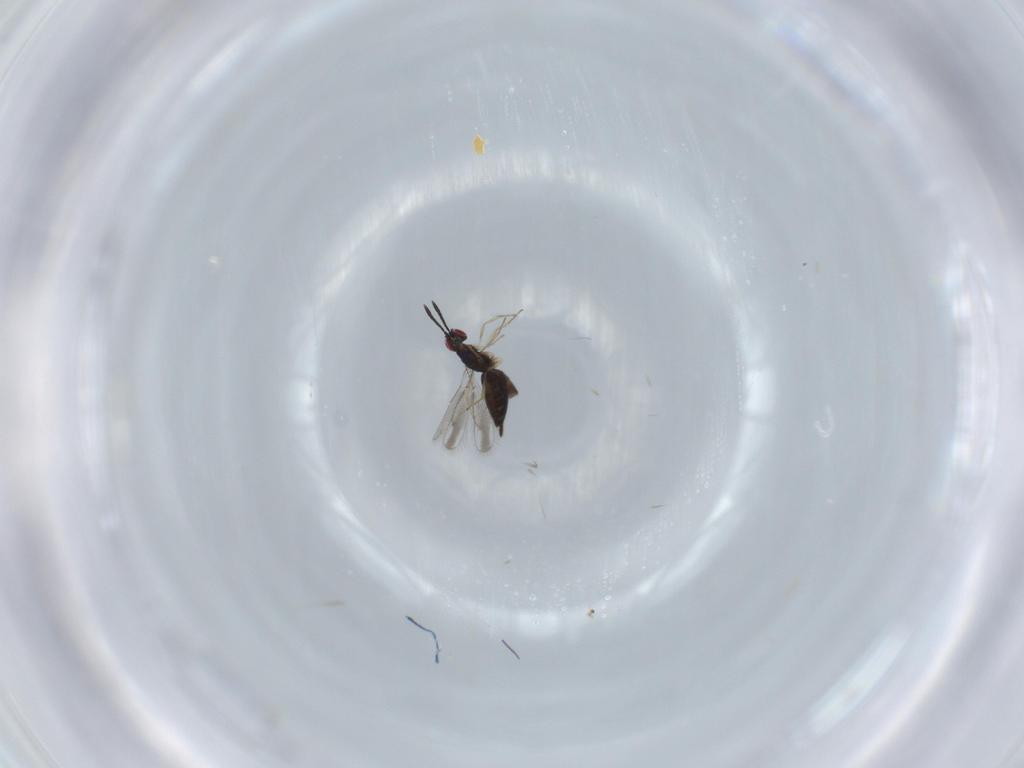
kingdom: Animalia
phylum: Arthropoda
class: Insecta
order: Hymenoptera
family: Pteromalidae
